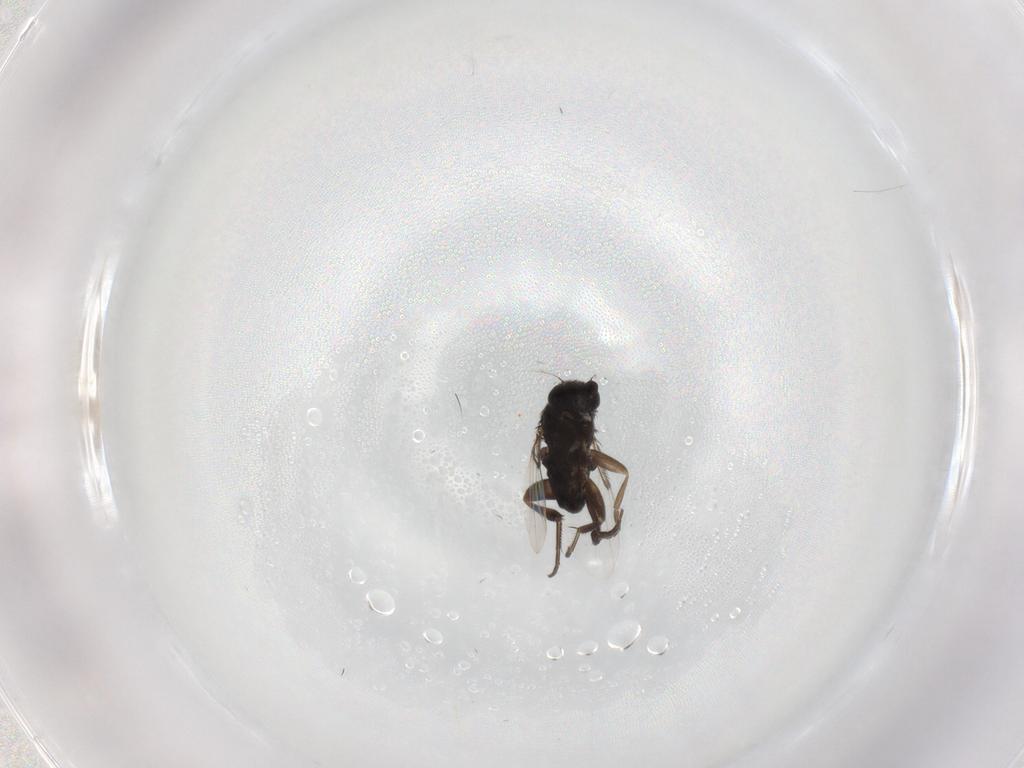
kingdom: Animalia
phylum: Arthropoda
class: Insecta
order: Diptera
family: Phoridae
